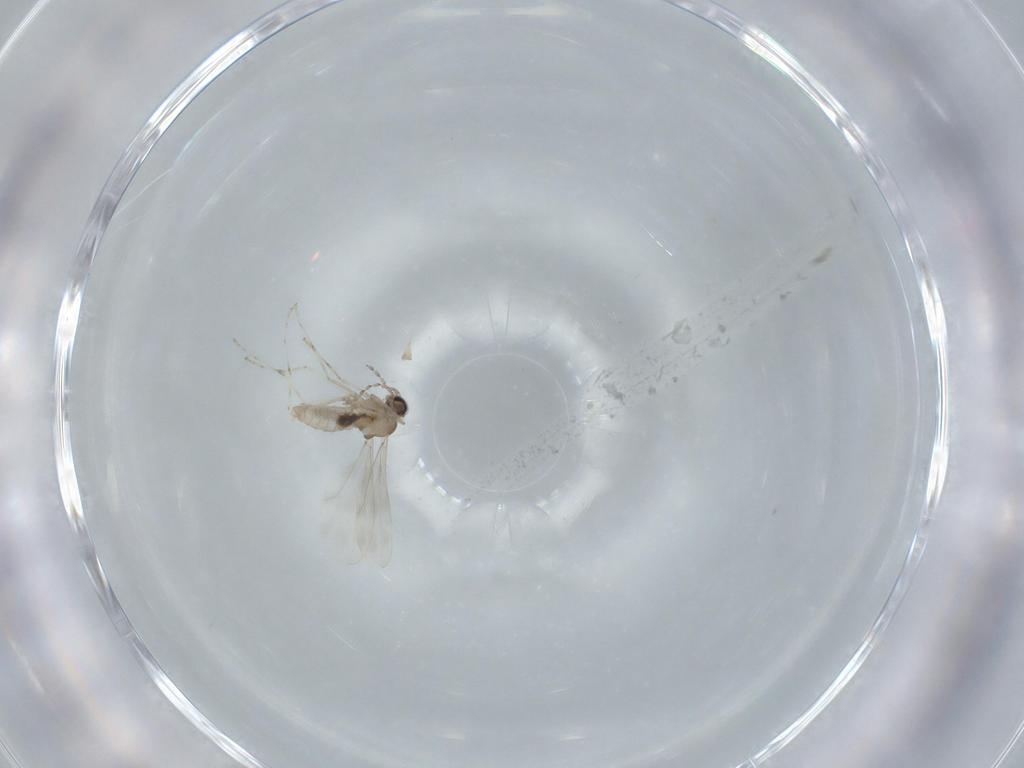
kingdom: Animalia
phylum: Arthropoda
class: Insecta
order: Diptera
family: Cecidomyiidae
